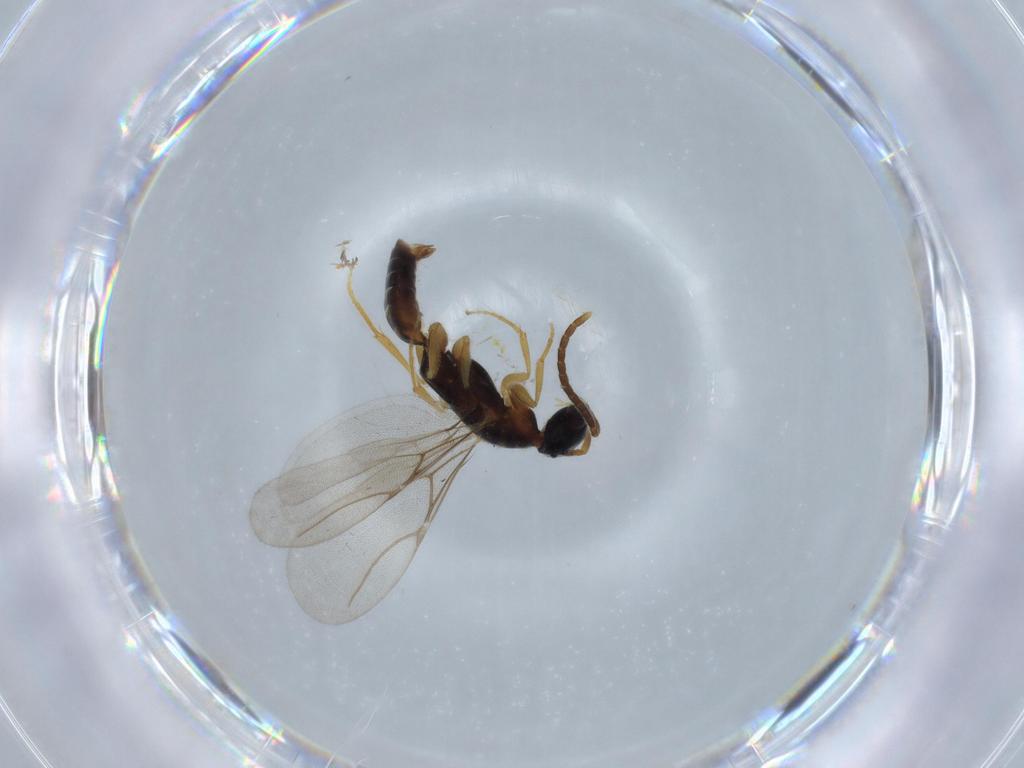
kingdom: Animalia
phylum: Arthropoda
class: Insecta
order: Hymenoptera
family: Bethylidae
